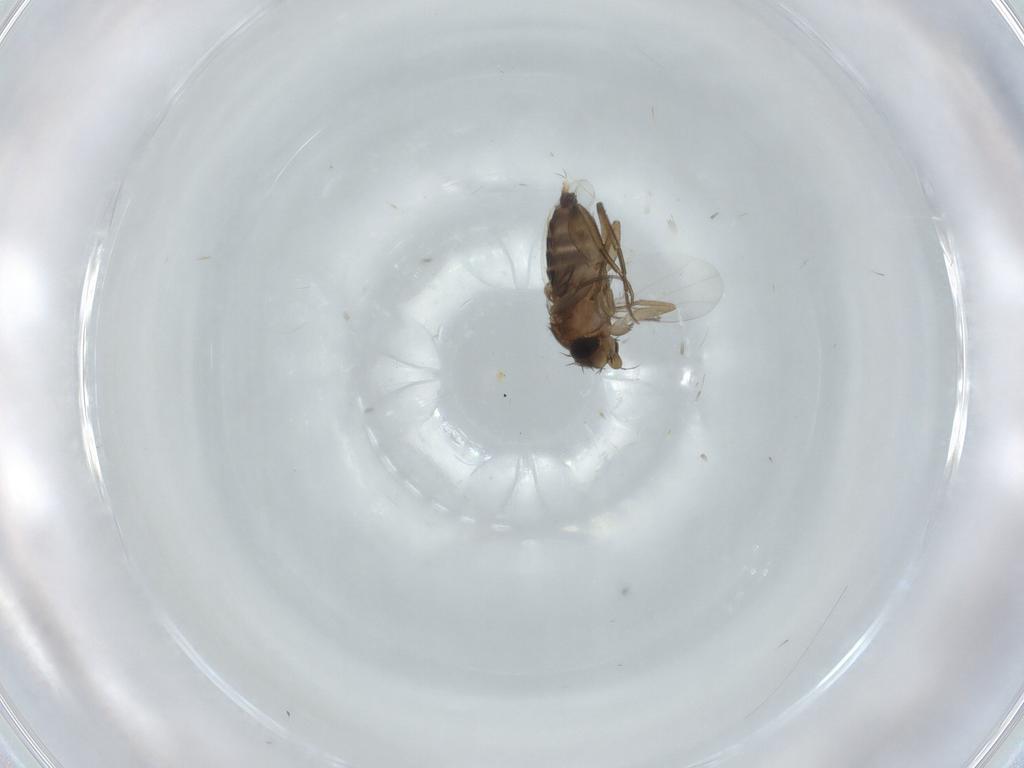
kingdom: Animalia
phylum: Arthropoda
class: Insecta
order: Diptera
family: Phoridae
